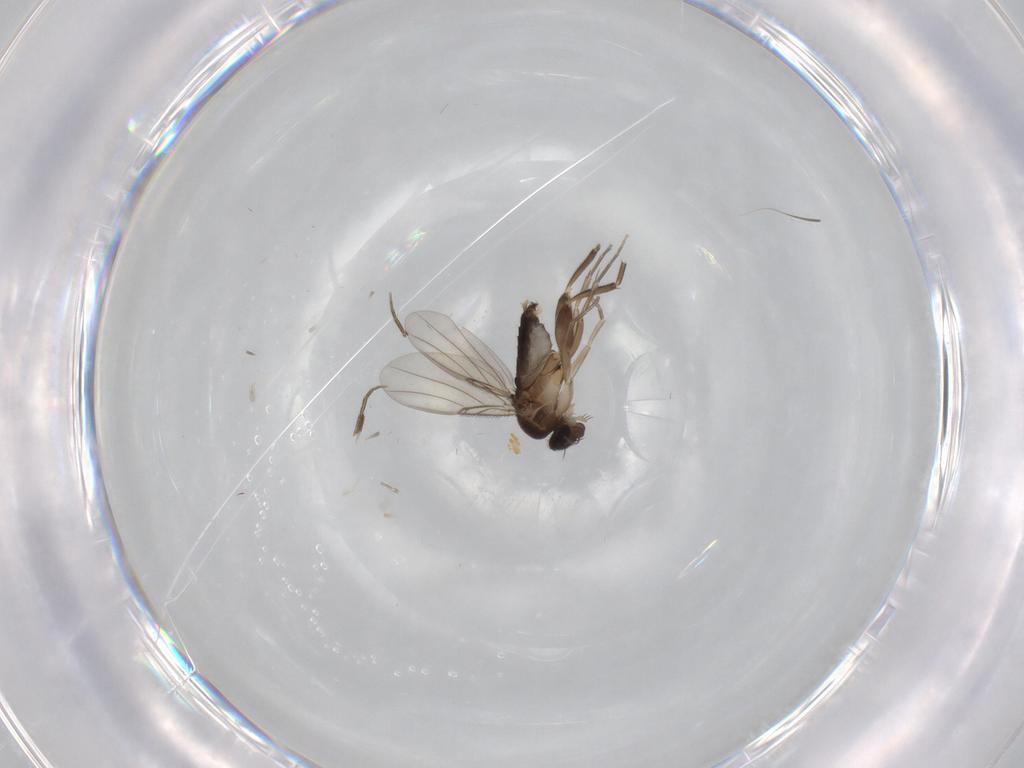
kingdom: Animalia
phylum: Arthropoda
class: Insecta
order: Diptera
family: Phoridae
